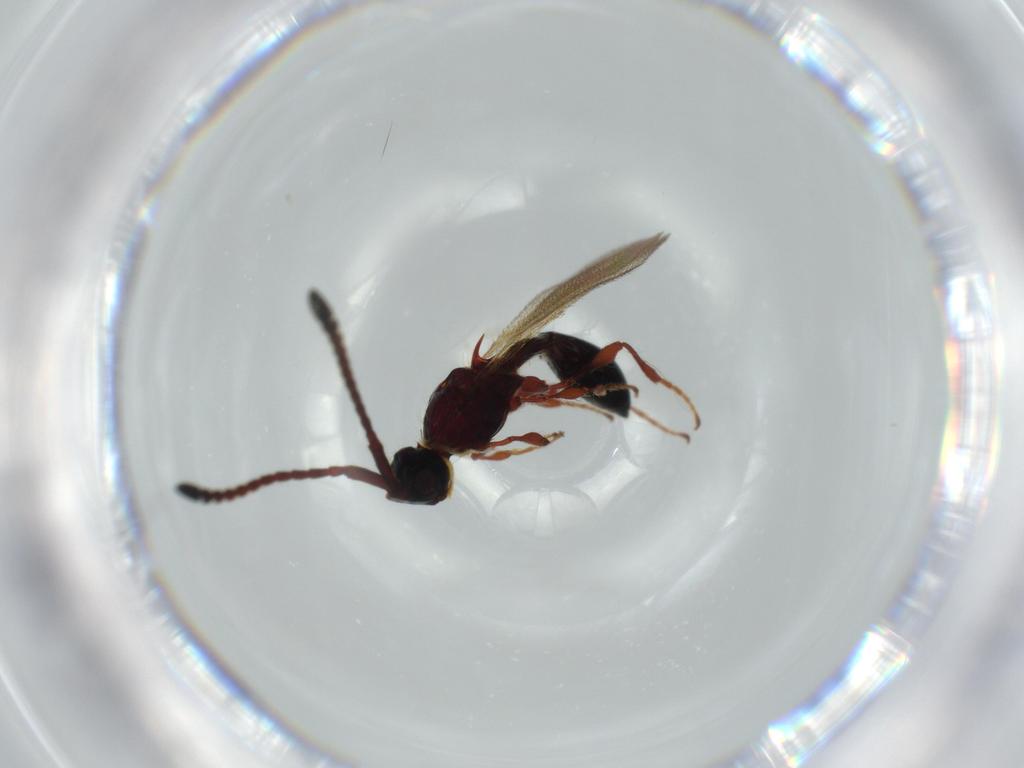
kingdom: Animalia
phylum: Arthropoda
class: Insecta
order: Hymenoptera
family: Diapriidae
